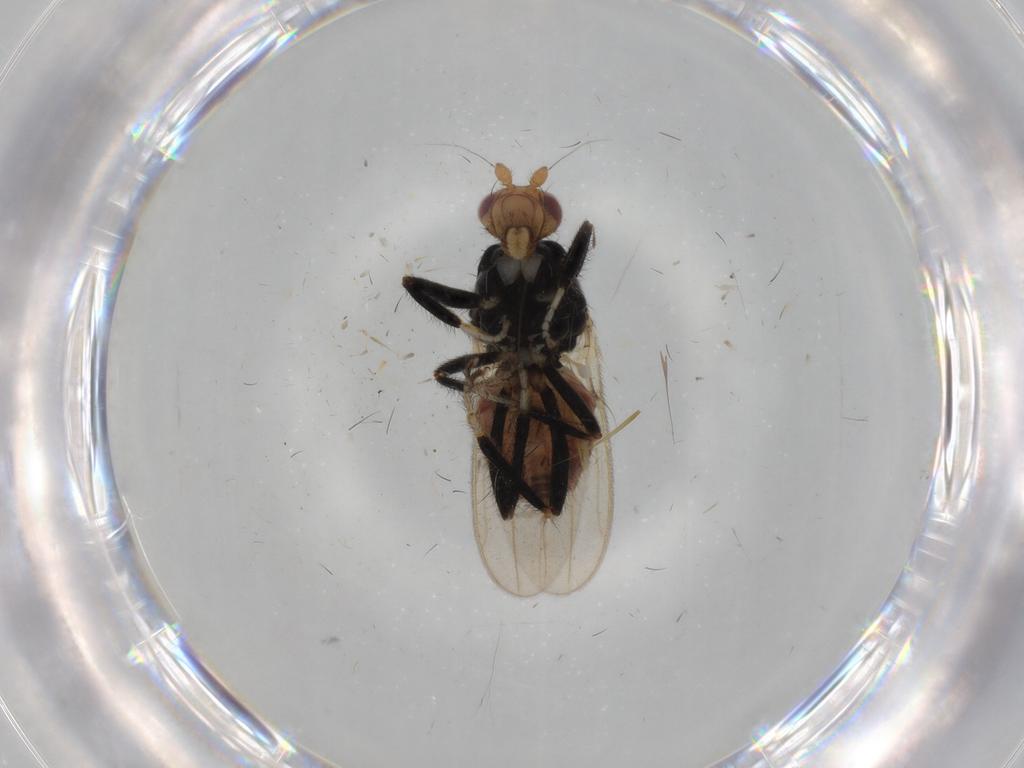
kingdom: Animalia
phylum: Arthropoda
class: Insecta
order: Diptera
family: Sphaeroceridae
